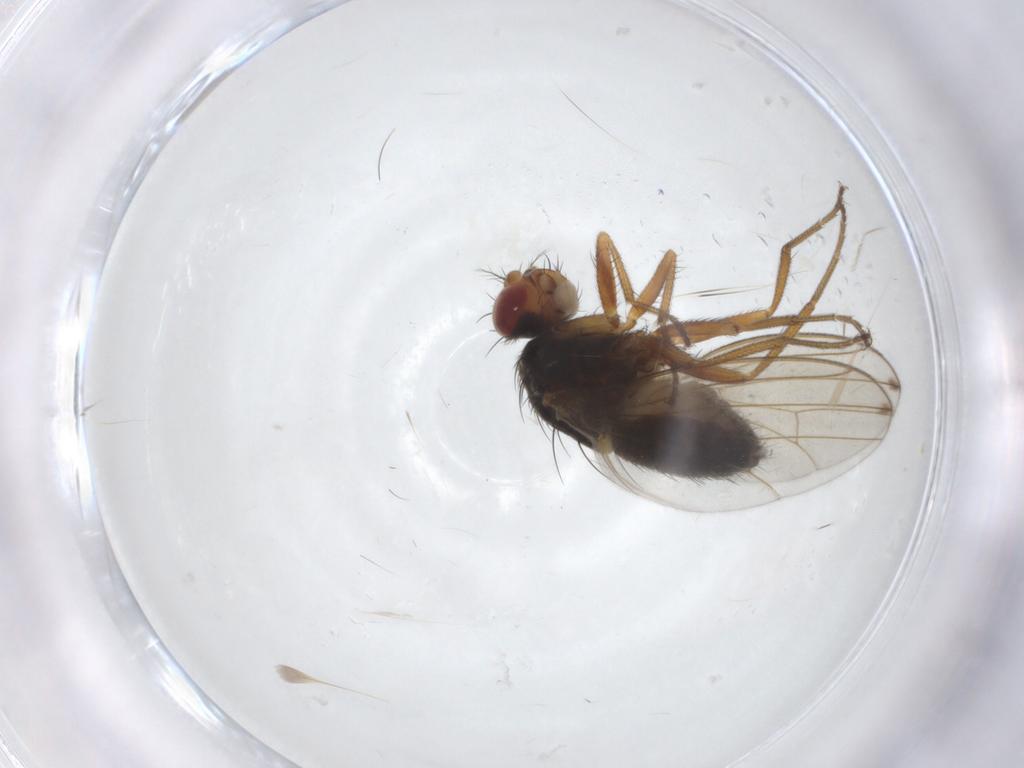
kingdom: Animalia
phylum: Arthropoda
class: Insecta
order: Diptera
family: Drosophilidae
